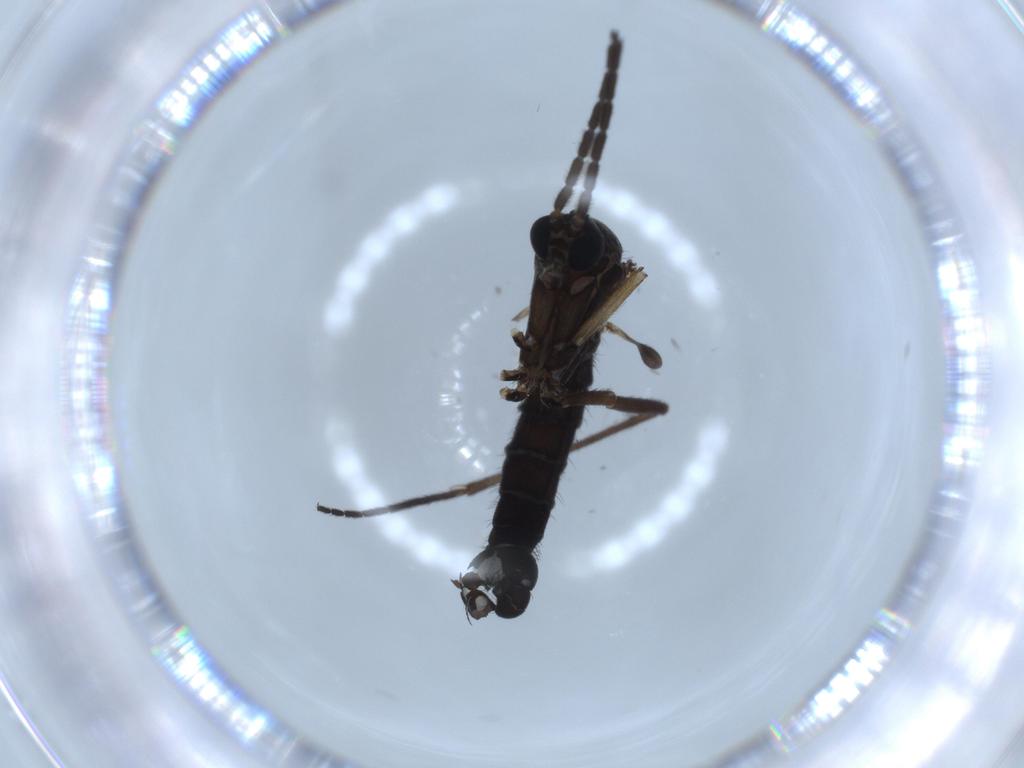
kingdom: Animalia
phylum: Arthropoda
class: Insecta
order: Diptera
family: Sciaridae
